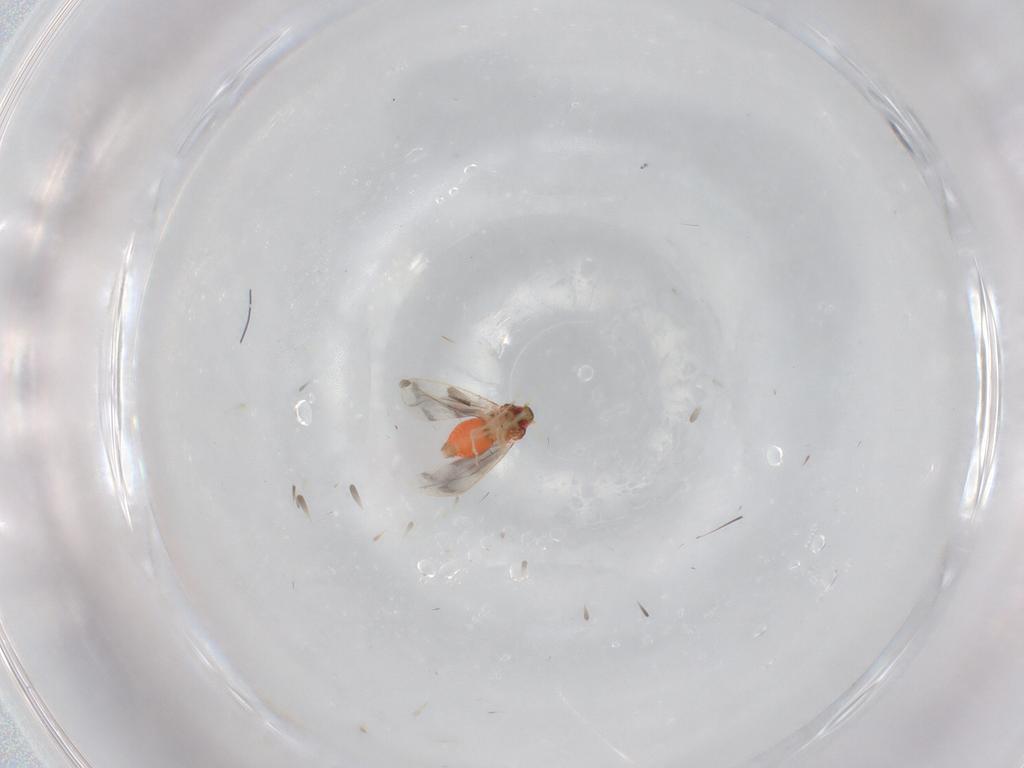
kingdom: Animalia
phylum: Arthropoda
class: Insecta
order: Hemiptera
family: Aleyrodidae
